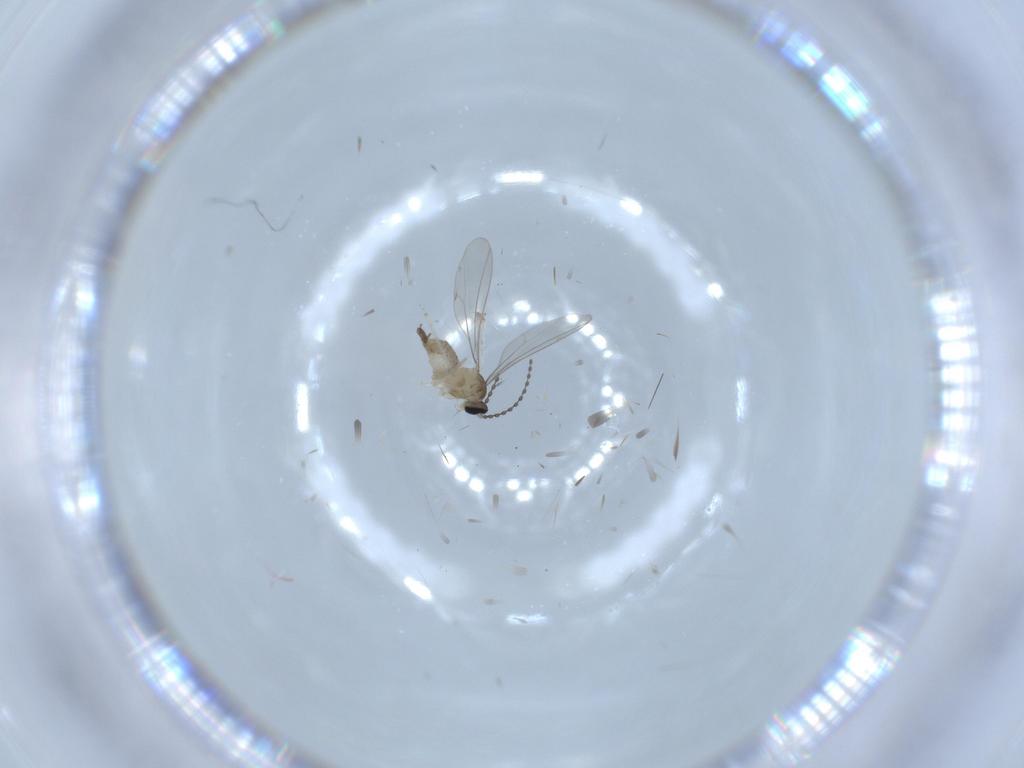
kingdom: Animalia
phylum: Arthropoda
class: Insecta
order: Diptera
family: Cecidomyiidae
